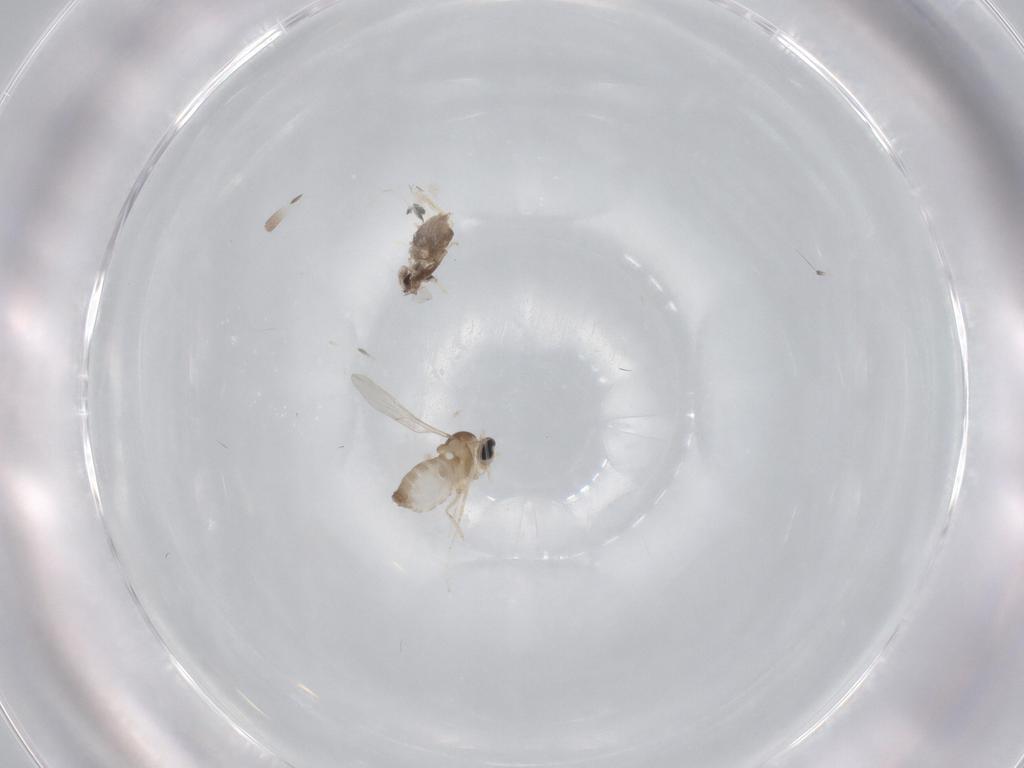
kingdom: Animalia
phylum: Arthropoda
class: Insecta
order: Diptera
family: Cecidomyiidae
